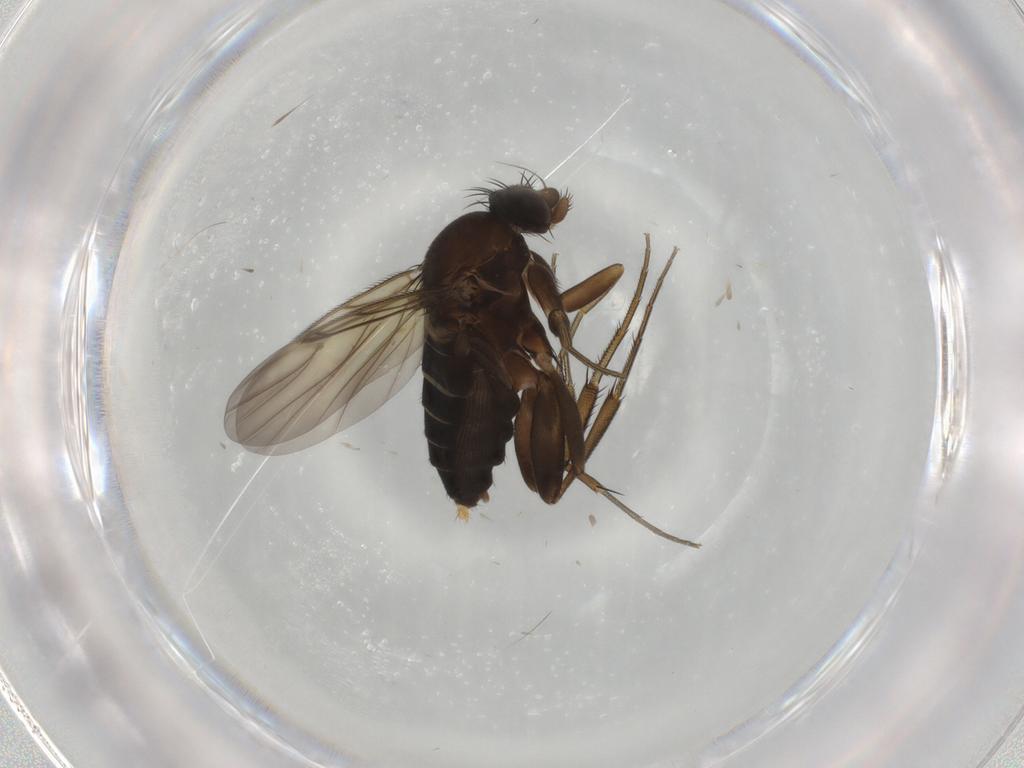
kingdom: Animalia
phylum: Arthropoda
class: Insecta
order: Diptera
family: Phoridae
